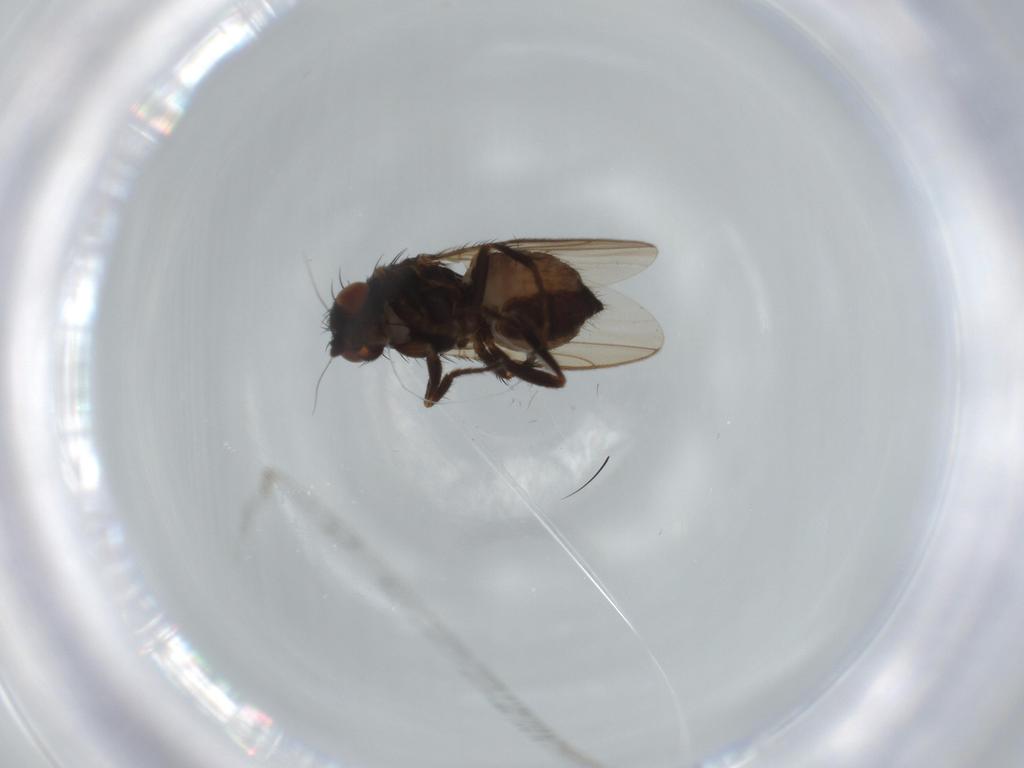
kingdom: Animalia
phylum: Arthropoda
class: Insecta
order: Diptera
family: Sphaeroceridae
